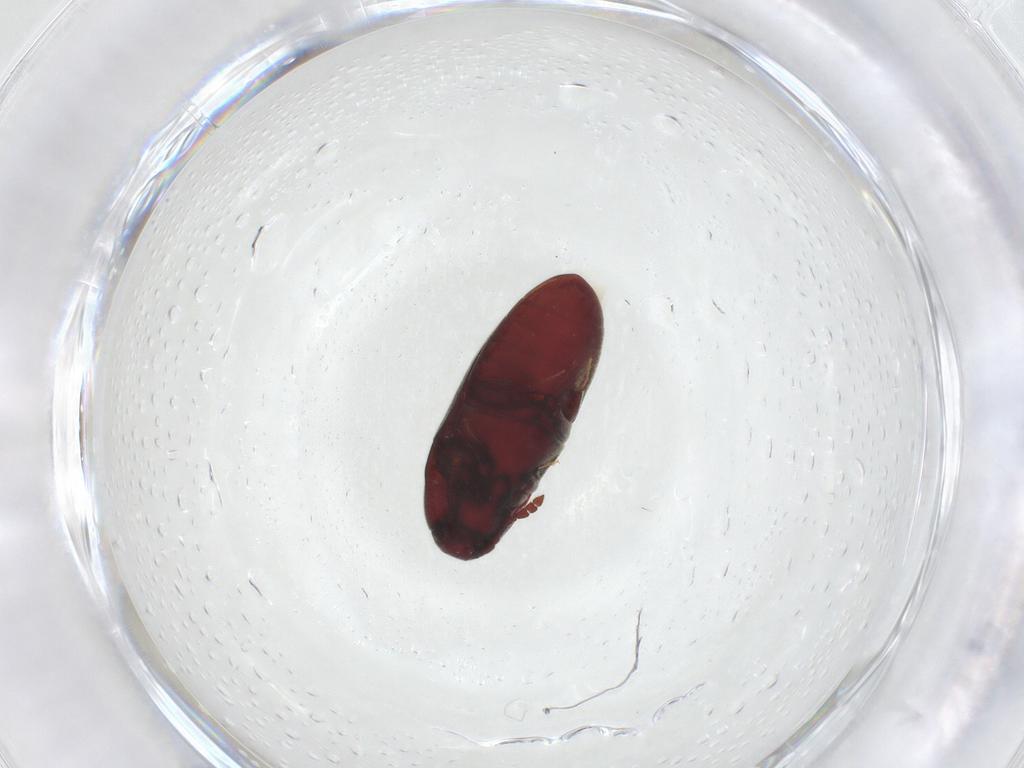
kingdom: Animalia
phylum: Arthropoda
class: Insecta
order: Coleoptera
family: Throscidae
